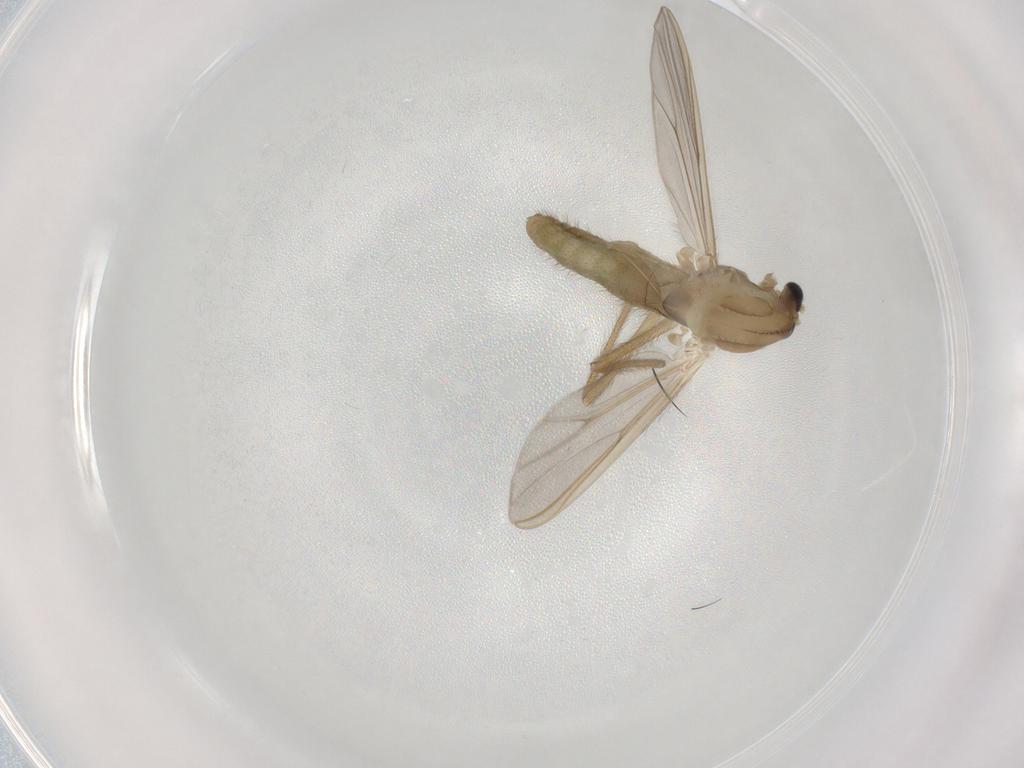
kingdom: Animalia
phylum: Arthropoda
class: Insecta
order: Diptera
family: Chironomidae
